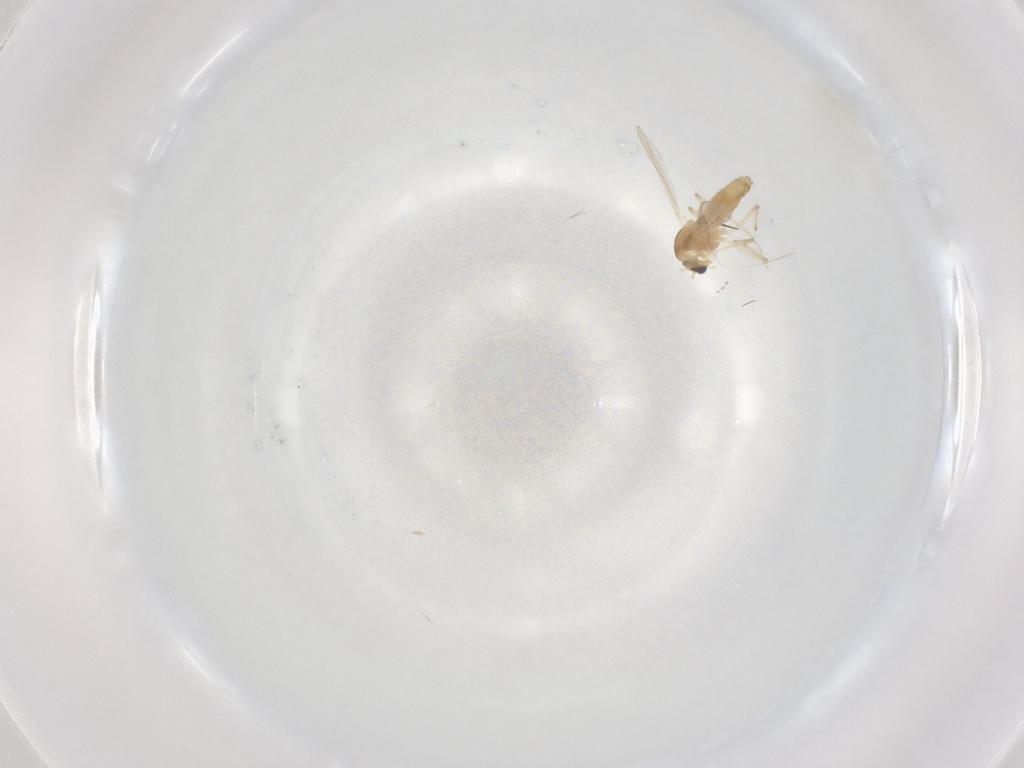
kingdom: Animalia
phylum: Arthropoda
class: Insecta
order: Diptera
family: Chironomidae
